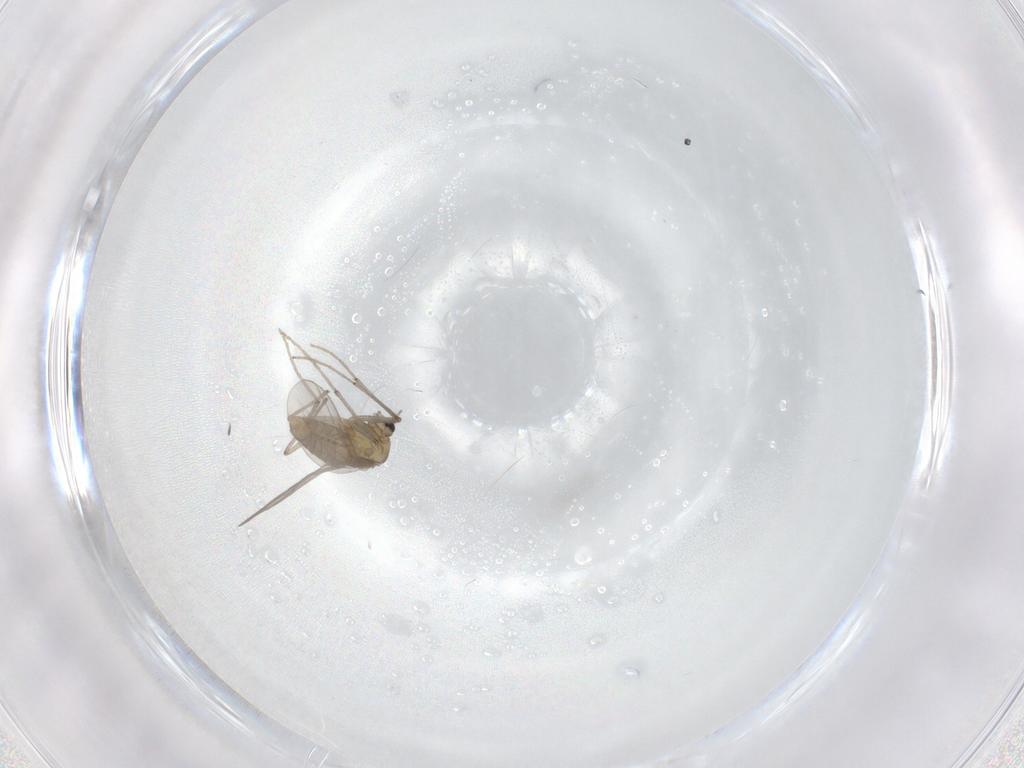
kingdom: Animalia
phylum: Arthropoda
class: Insecta
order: Diptera
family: Chironomidae
